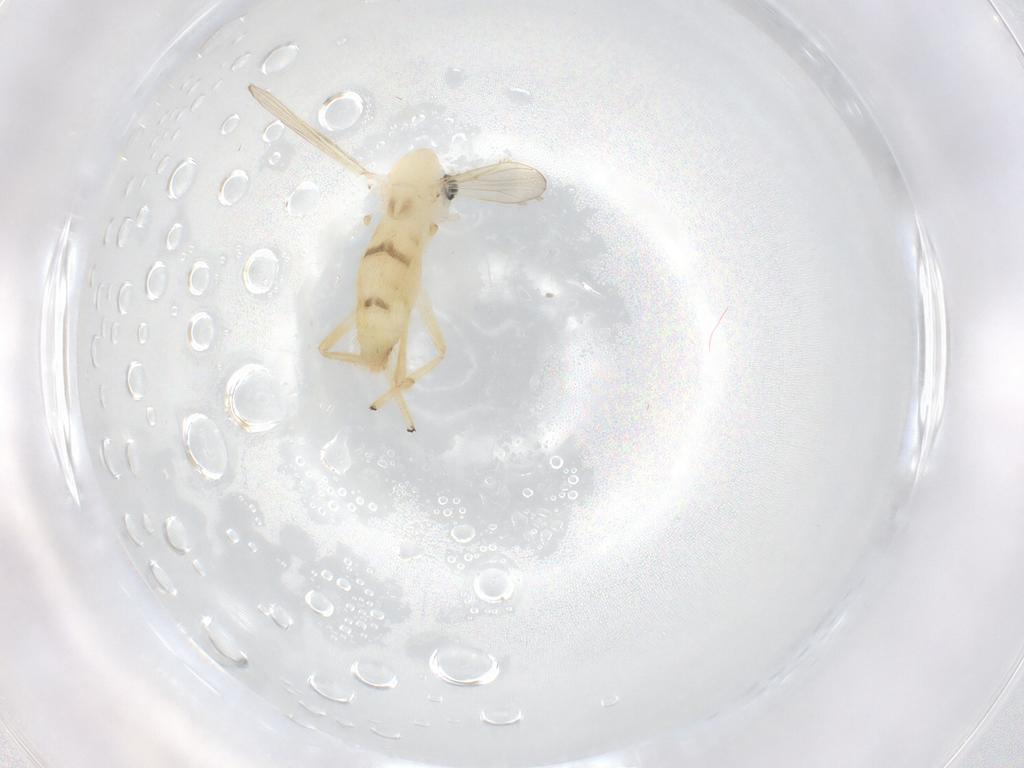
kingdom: Animalia
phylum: Arthropoda
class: Insecta
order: Diptera
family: Chironomidae
